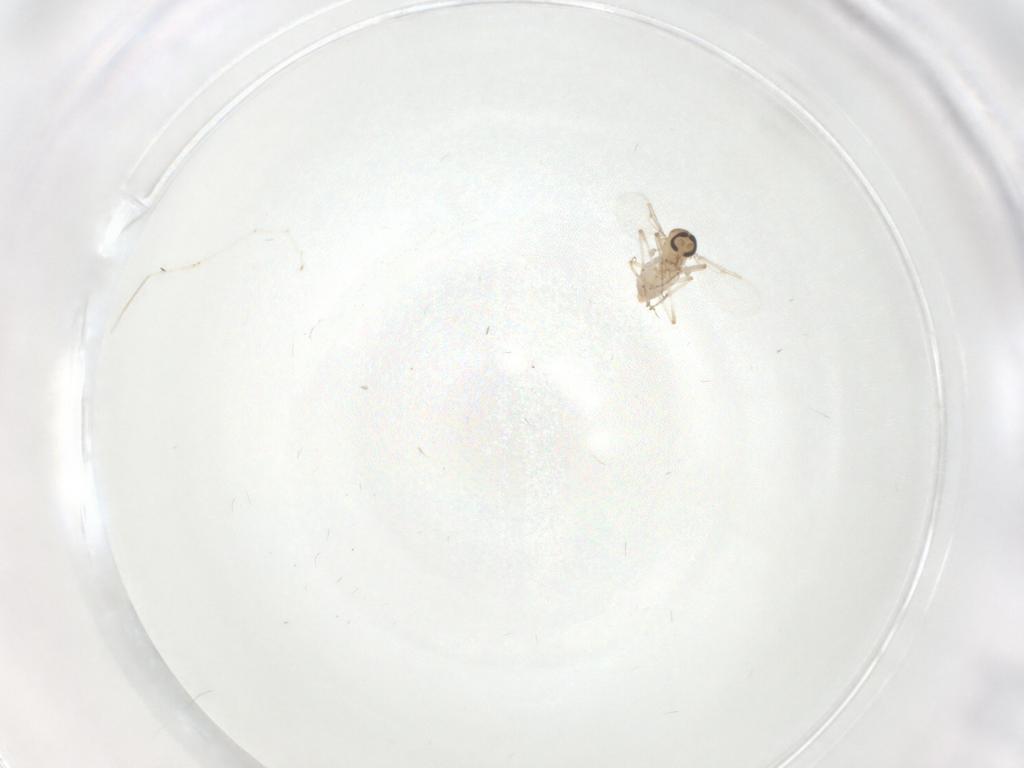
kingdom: Animalia
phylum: Arthropoda
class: Insecta
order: Diptera
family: Ceratopogonidae
